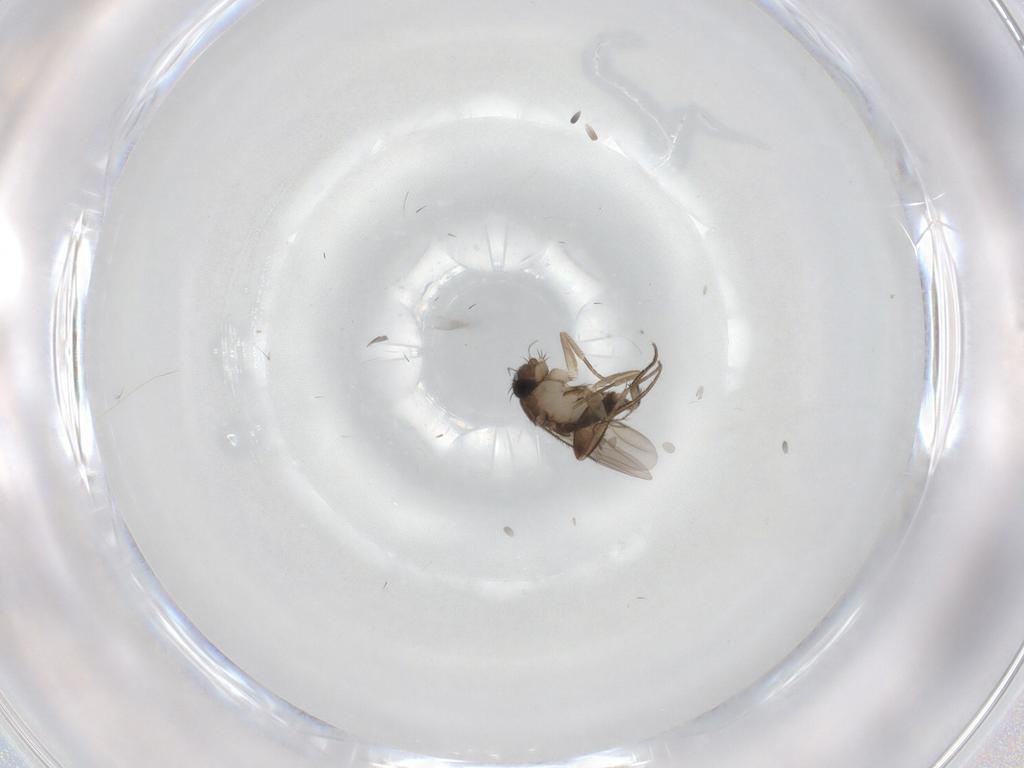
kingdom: Animalia
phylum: Arthropoda
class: Insecta
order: Diptera
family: Phoridae
